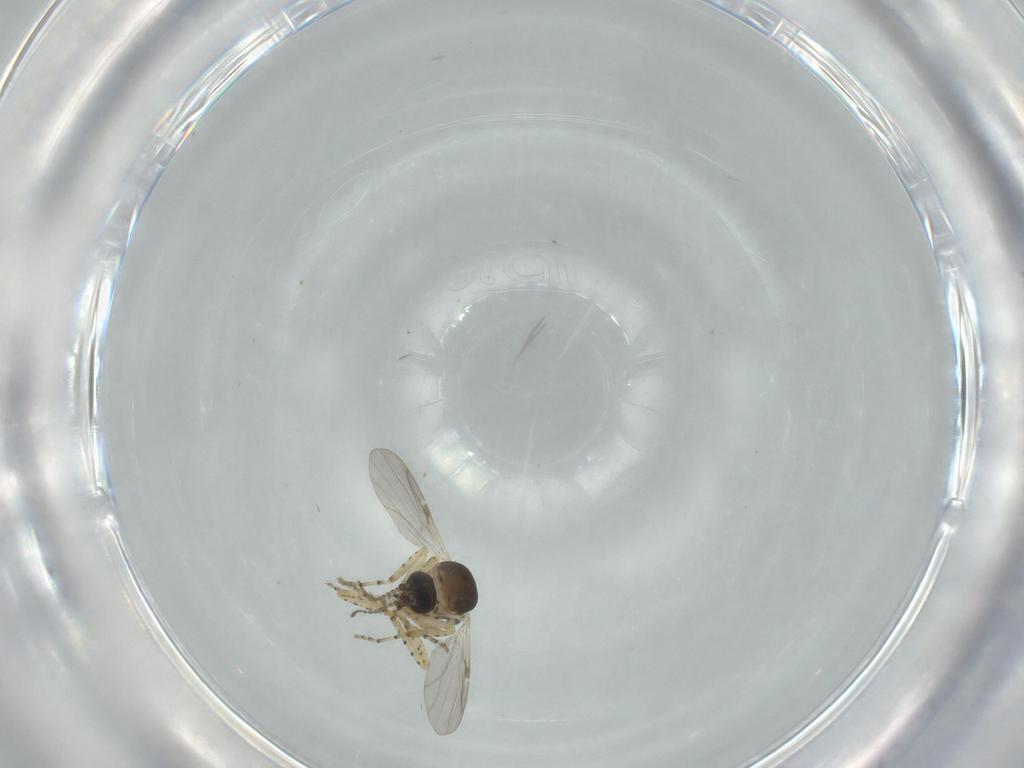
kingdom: Animalia
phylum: Arthropoda
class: Insecta
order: Diptera
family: Ceratopogonidae
